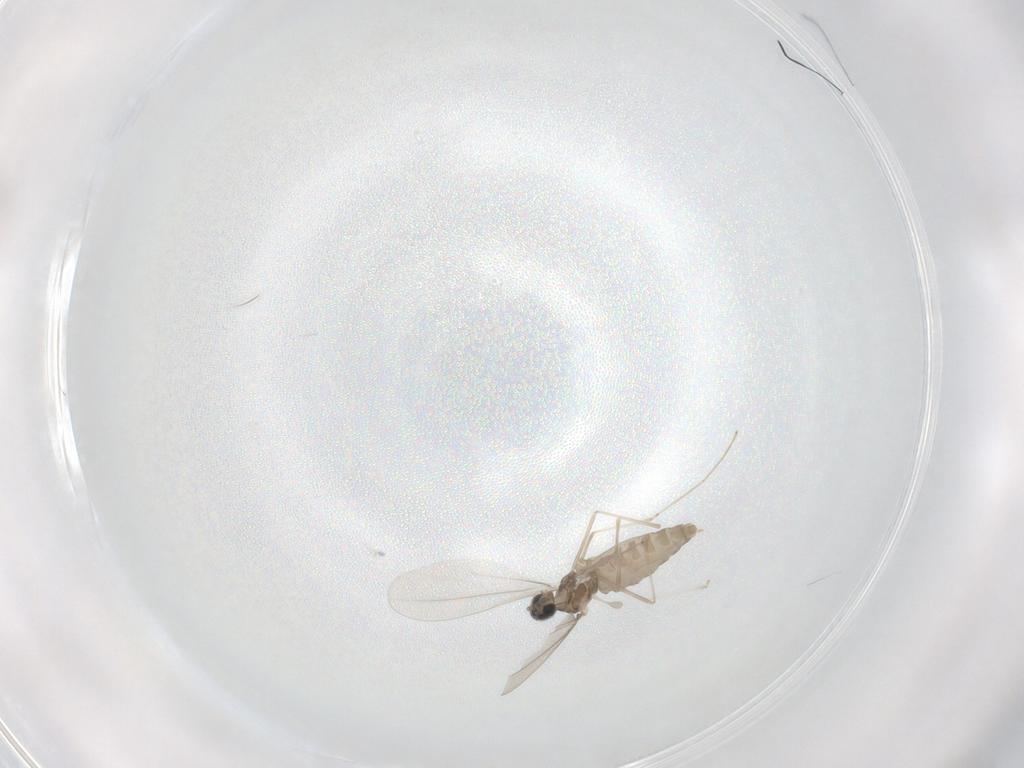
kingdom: Animalia
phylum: Arthropoda
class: Insecta
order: Diptera
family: Cecidomyiidae
